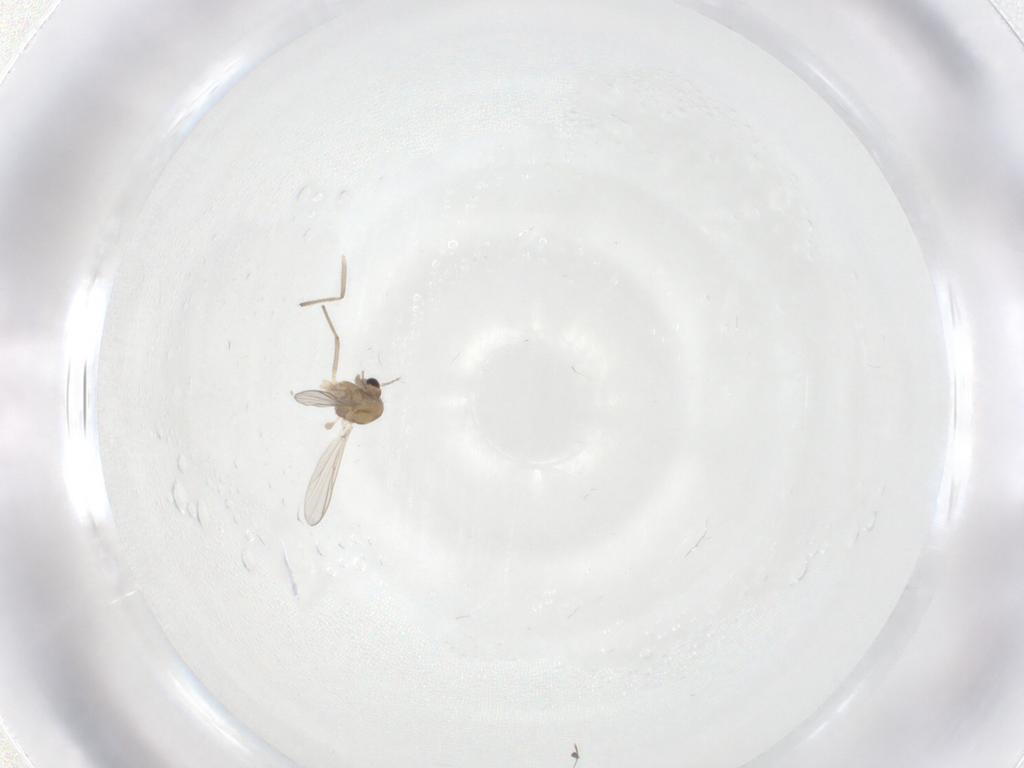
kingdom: Animalia
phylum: Arthropoda
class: Insecta
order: Diptera
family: Chironomidae
